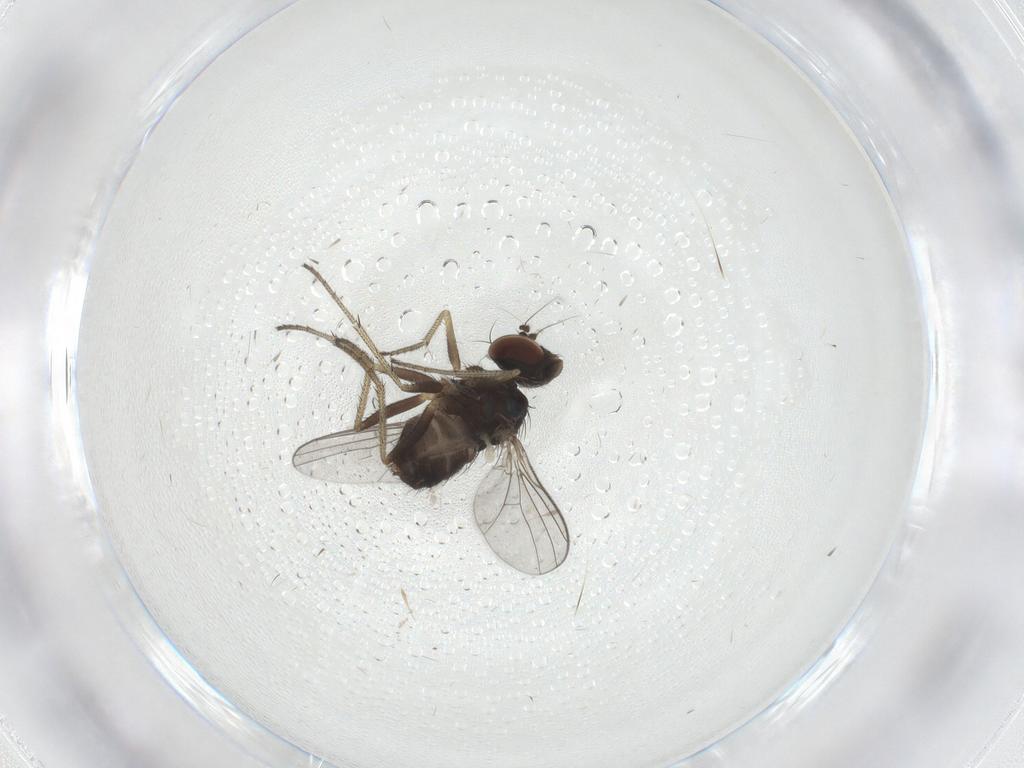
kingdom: Animalia
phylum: Arthropoda
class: Insecta
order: Diptera
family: Dolichopodidae
